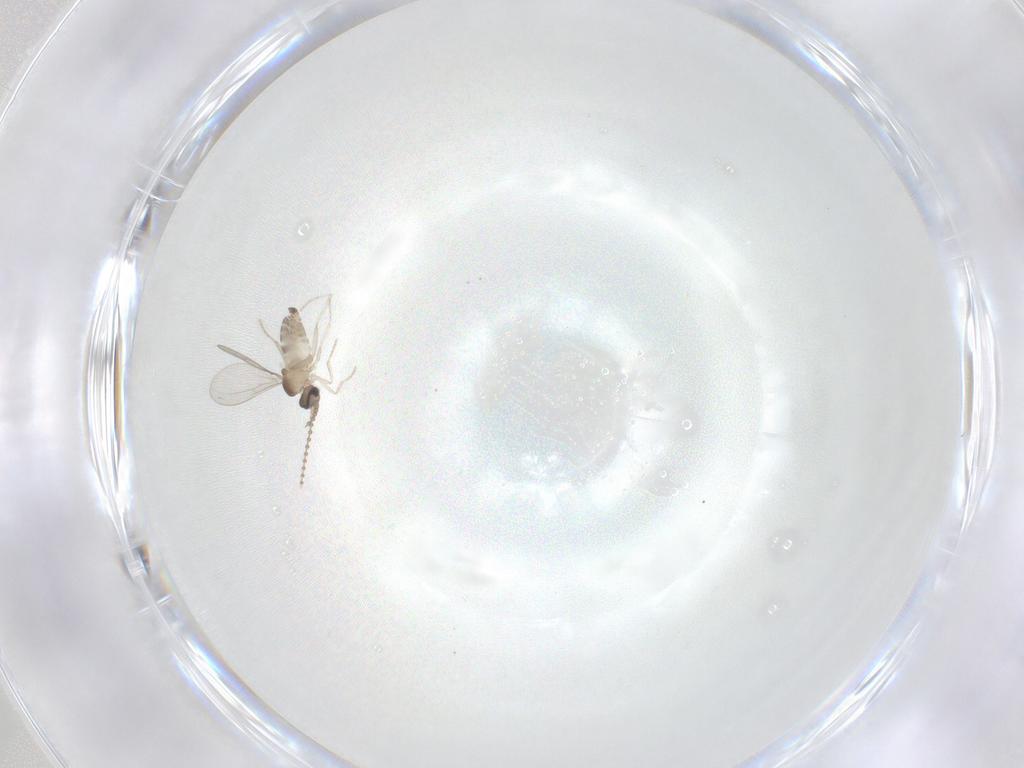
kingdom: Animalia
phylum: Arthropoda
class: Insecta
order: Diptera
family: Cecidomyiidae
